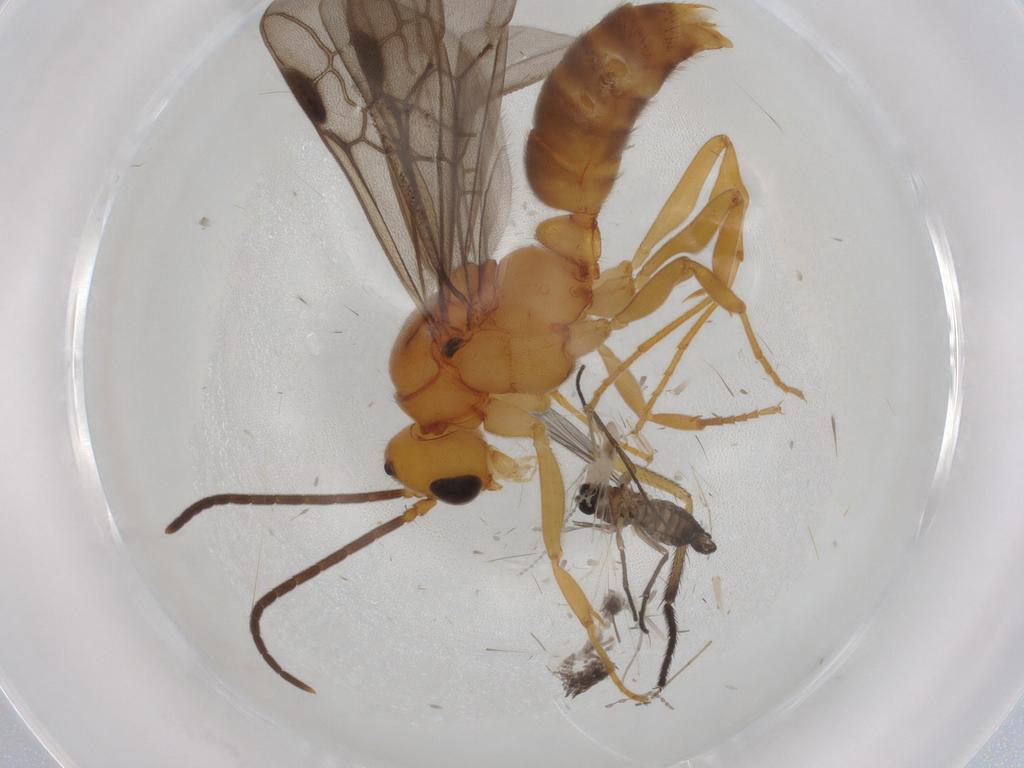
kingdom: Animalia
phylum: Arthropoda
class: Insecta
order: Hymenoptera
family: Formicidae
